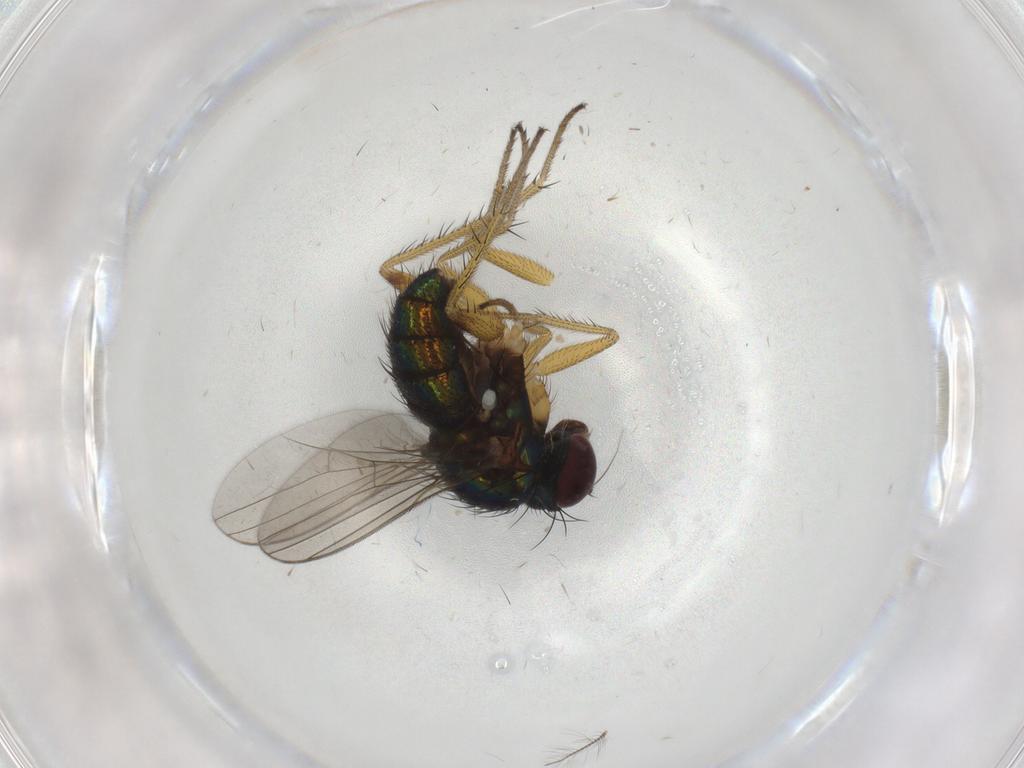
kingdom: Animalia
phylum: Arthropoda
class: Insecta
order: Diptera
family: Dolichopodidae
